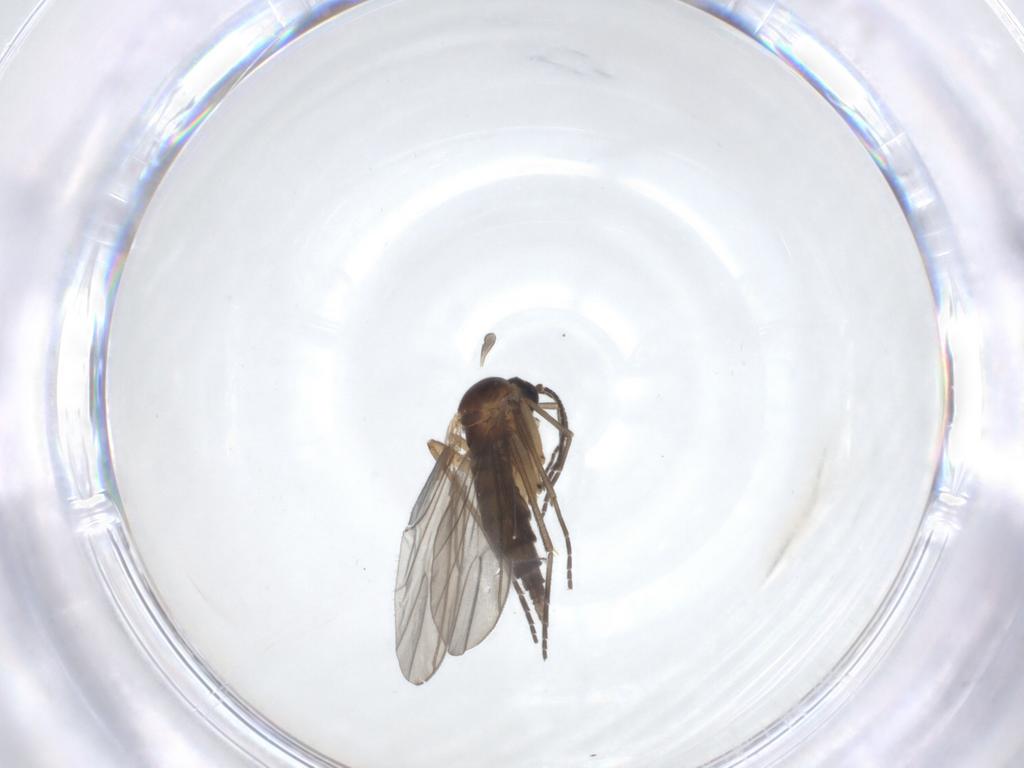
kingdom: Animalia
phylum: Arthropoda
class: Insecta
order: Diptera
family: Sciaridae
